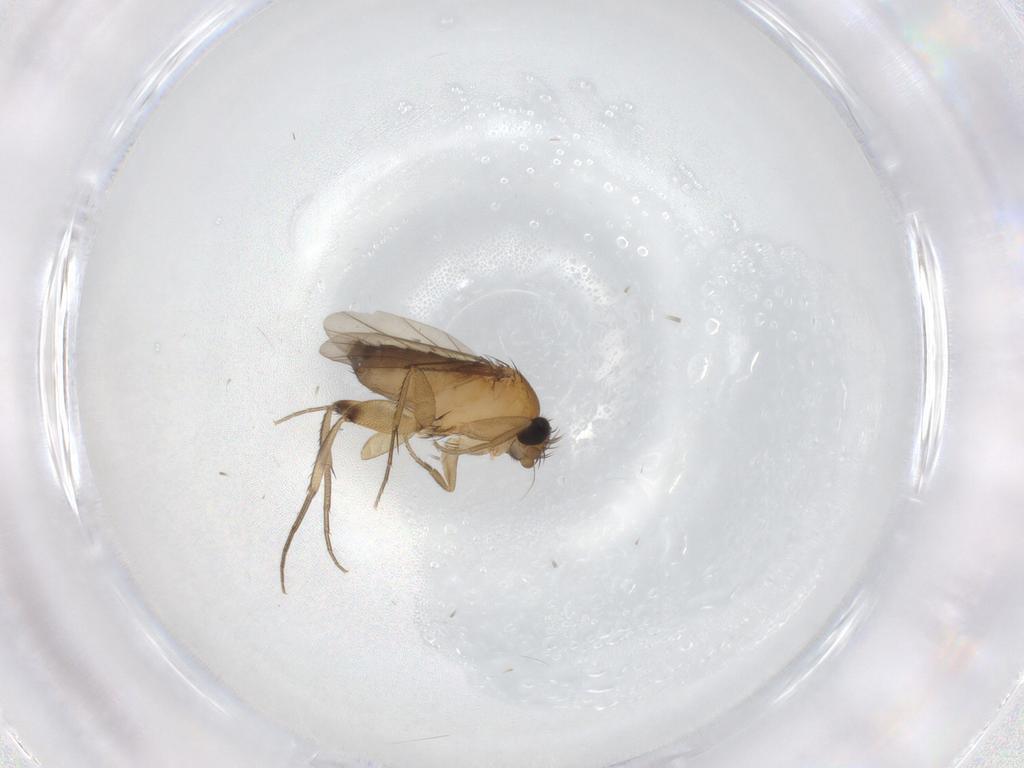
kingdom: Animalia
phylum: Arthropoda
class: Insecta
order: Diptera
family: Phoridae
